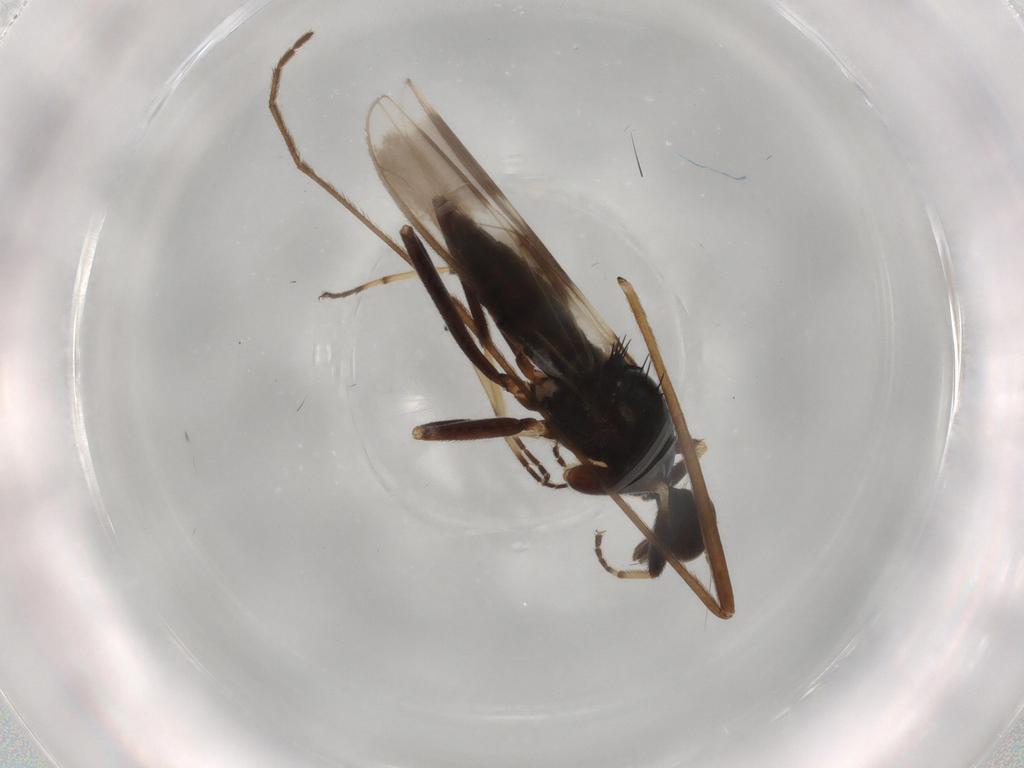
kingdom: Animalia
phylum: Arthropoda
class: Insecta
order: Diptera
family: Hybotidae
